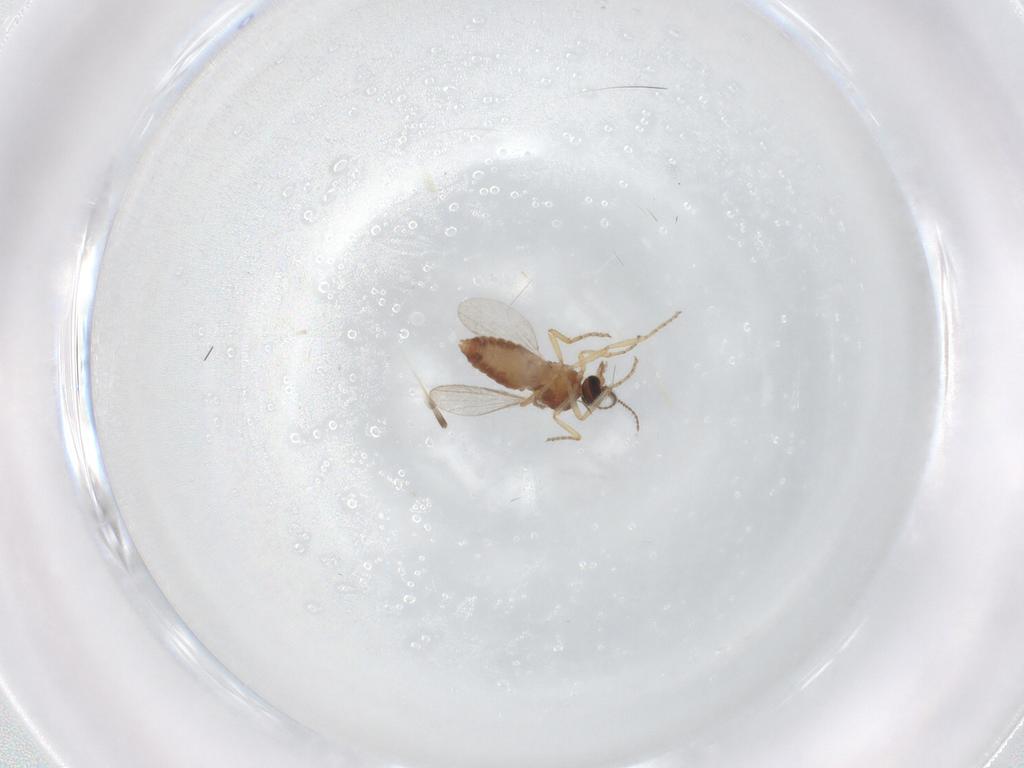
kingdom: Animalia
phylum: Arthropoda
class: Insecta
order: Diptera
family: Ceratopogonidae
